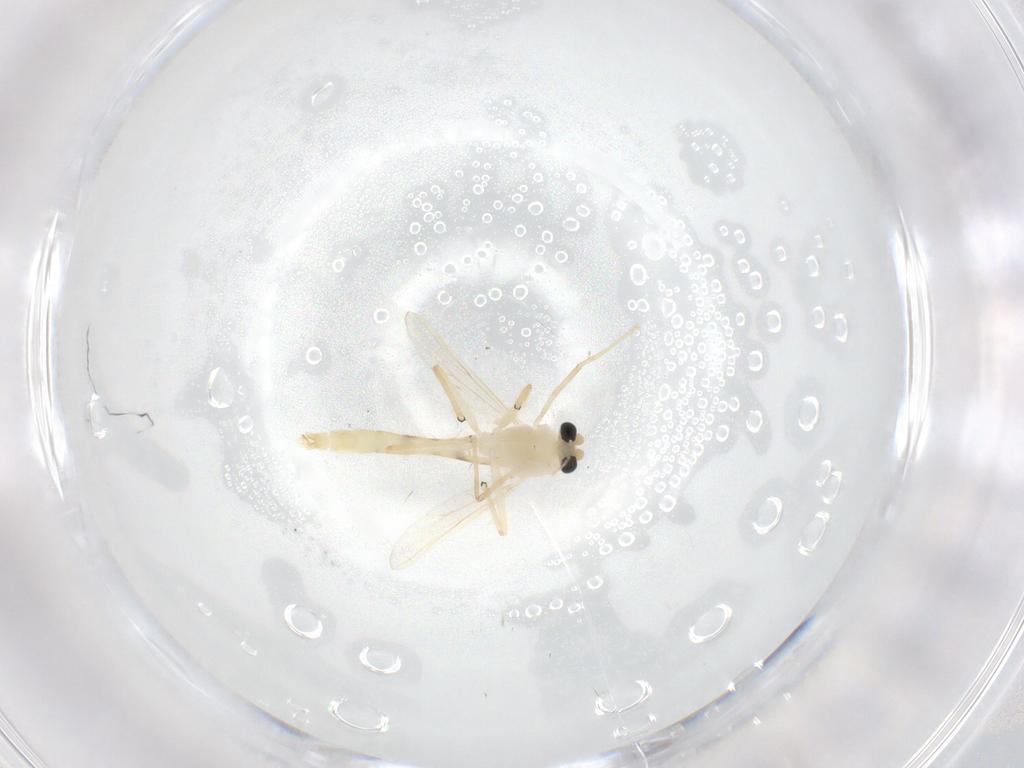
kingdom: Animalia
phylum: Arthropoda
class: Insecta
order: Diptera
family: Chironomidae
